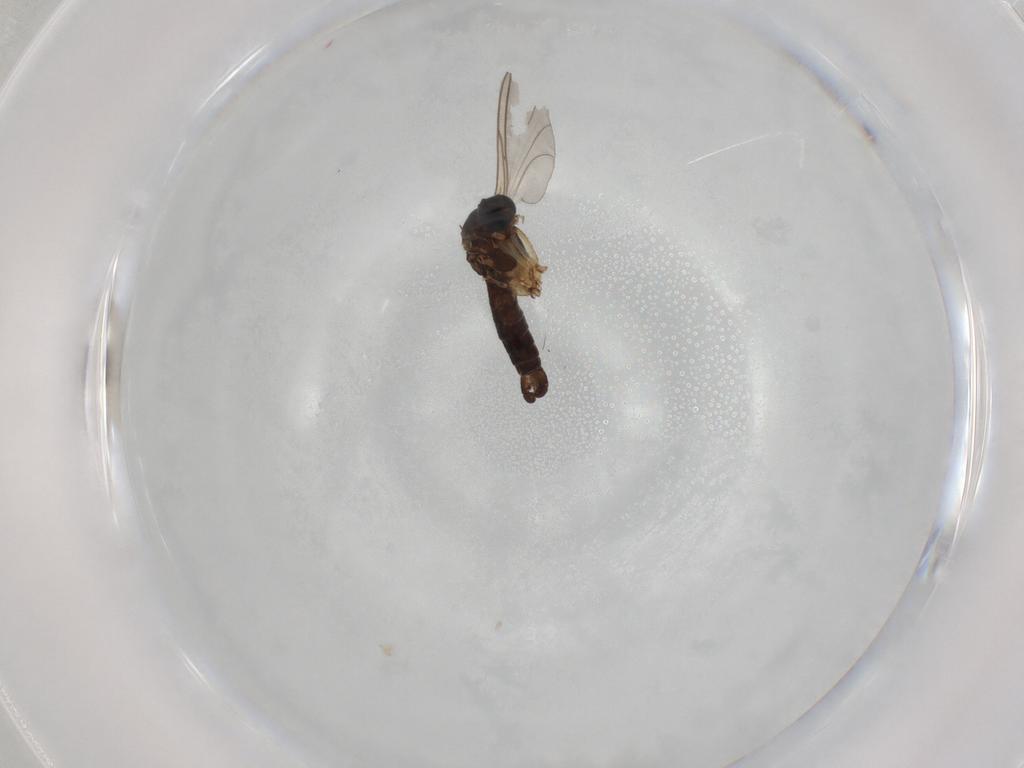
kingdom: Animalia
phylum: Arthropoda
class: Insecta
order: Diptera
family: Sciaridae
